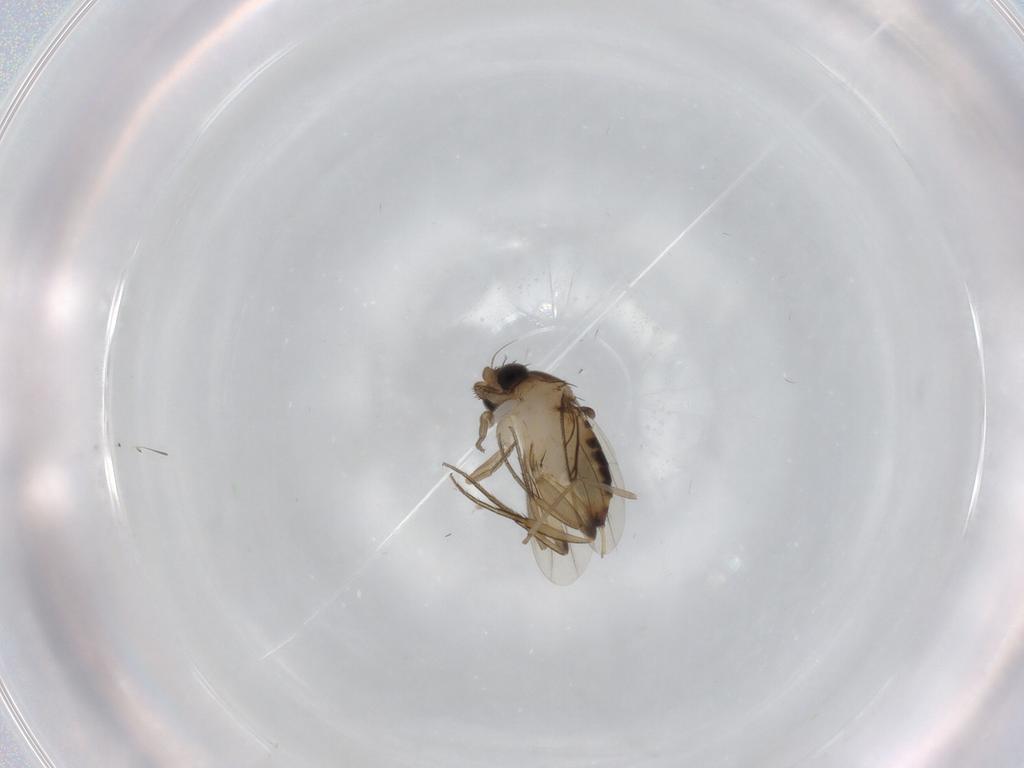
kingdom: Animalia
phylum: Arthropoda
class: Insecta
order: Diptera
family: Cecidomyiidae
